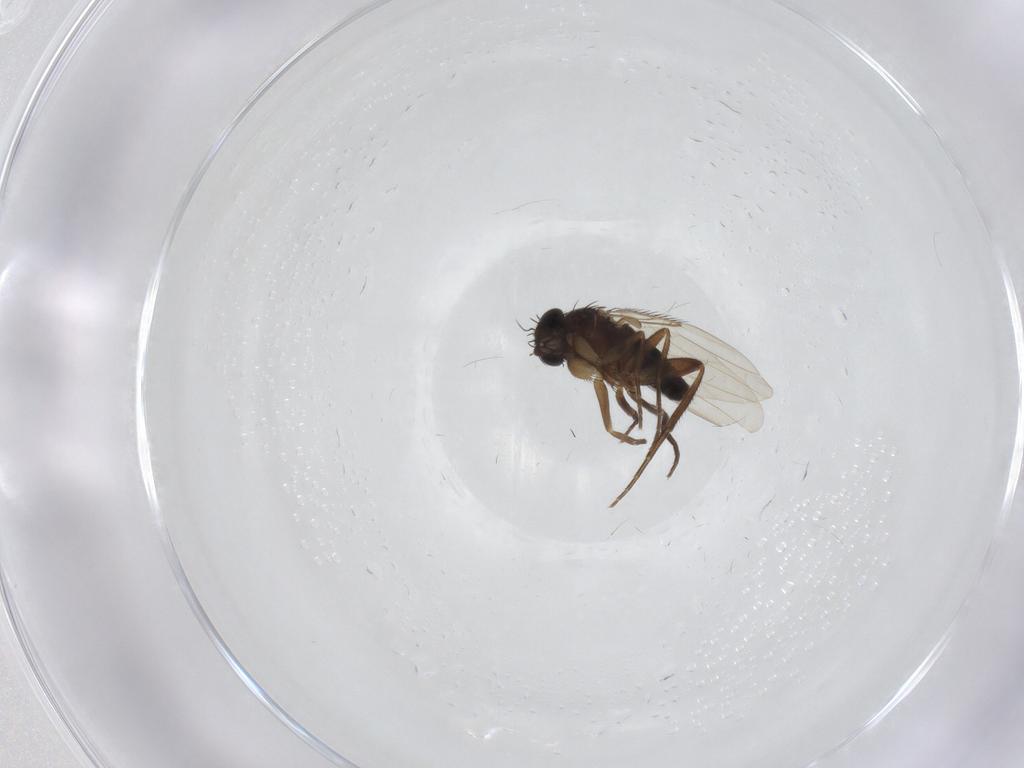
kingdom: Animalia
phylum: Arthropoda
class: Insecta
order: Diptera
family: Phoridae
